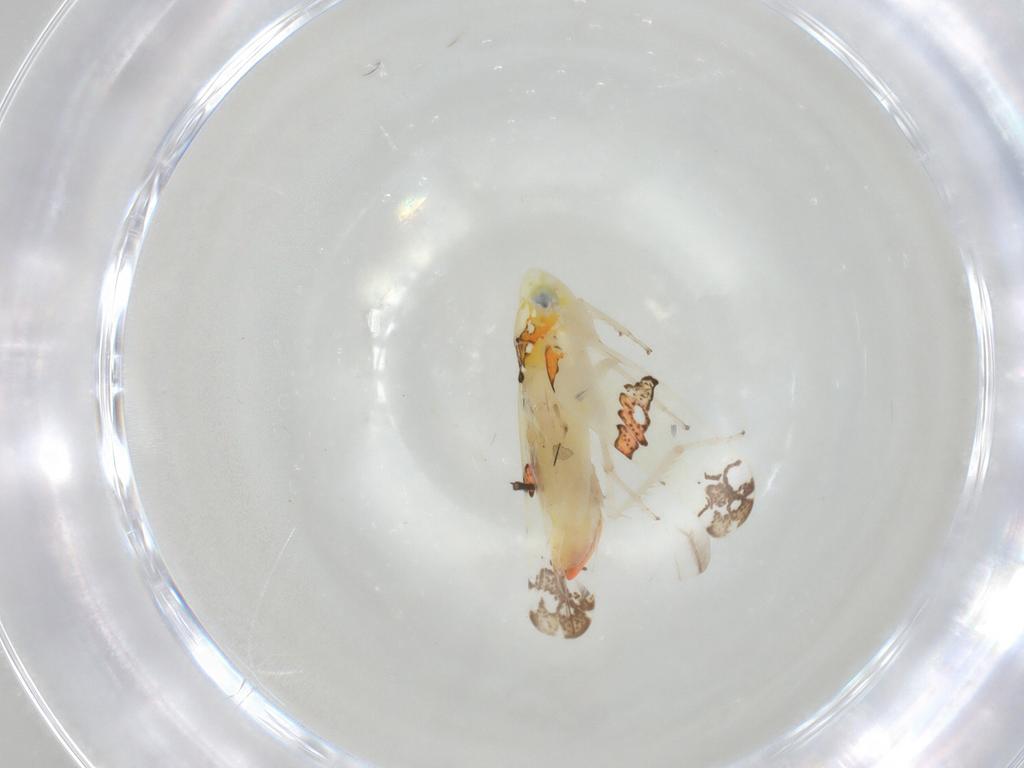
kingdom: Animalia
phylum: Arthropoda
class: Insecta
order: Hemiptera
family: Cicadellidae
